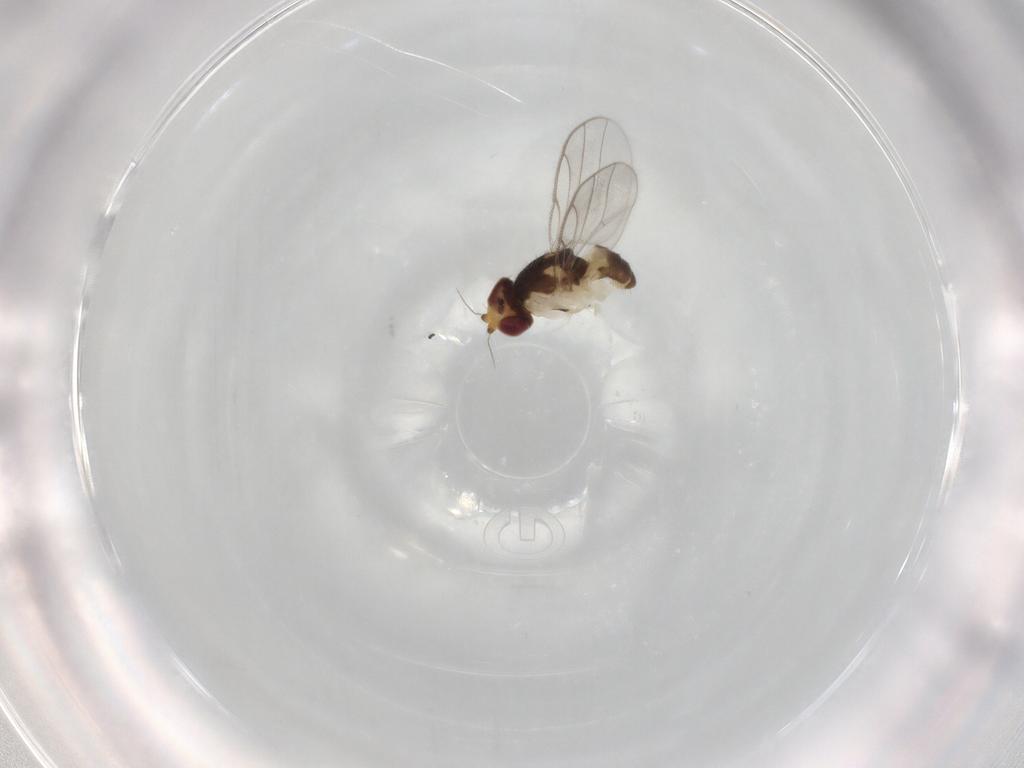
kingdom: Animalia
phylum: Arthropoda
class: Insecta
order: Diptera
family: Chloropidae
